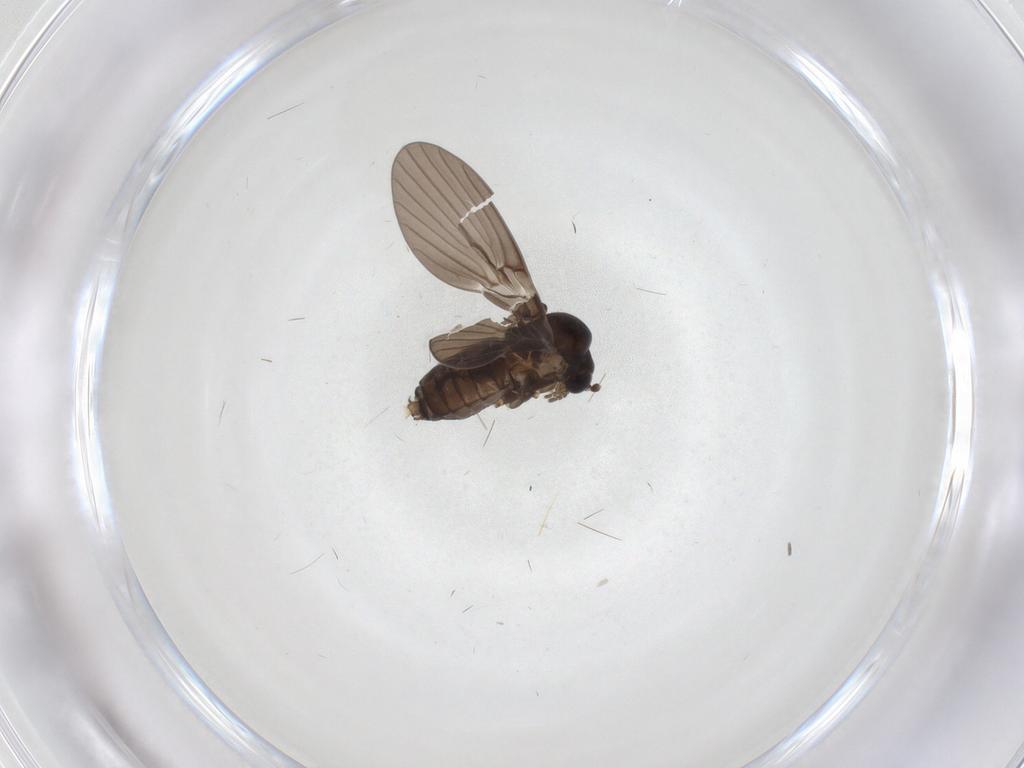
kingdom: Animalia
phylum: Arthropoda
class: Insecta
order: Diptera
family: Psychodidae
